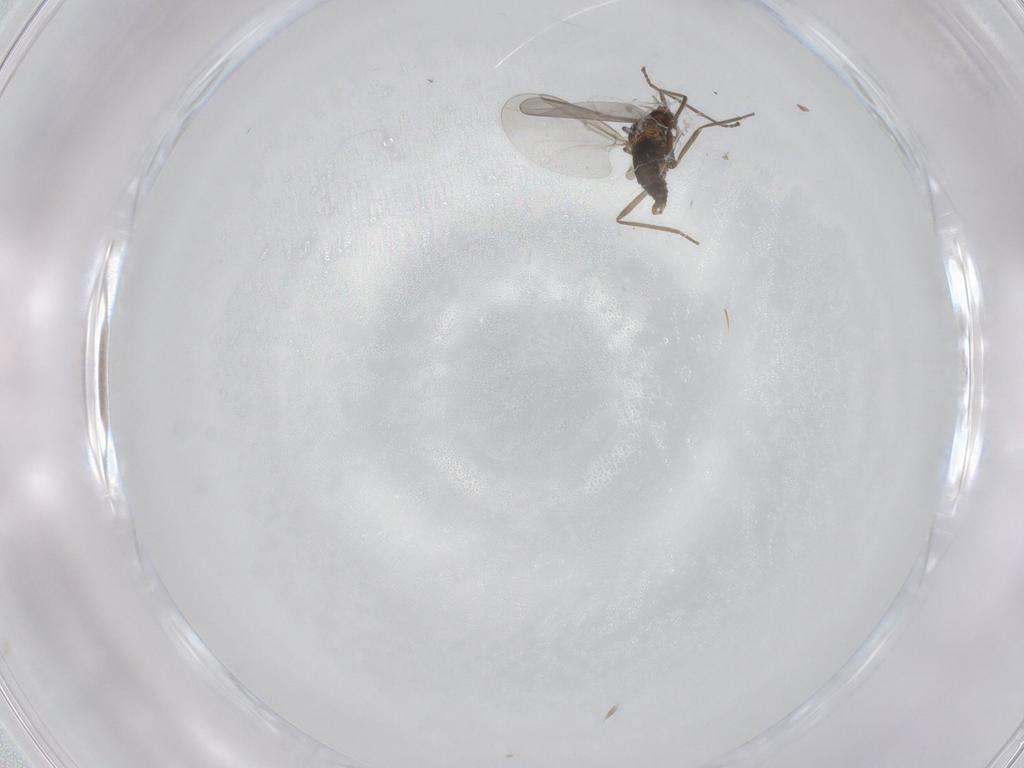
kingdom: Animalia
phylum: Arthropoda
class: Insecta
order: Diptera
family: Cecidomyiidae
